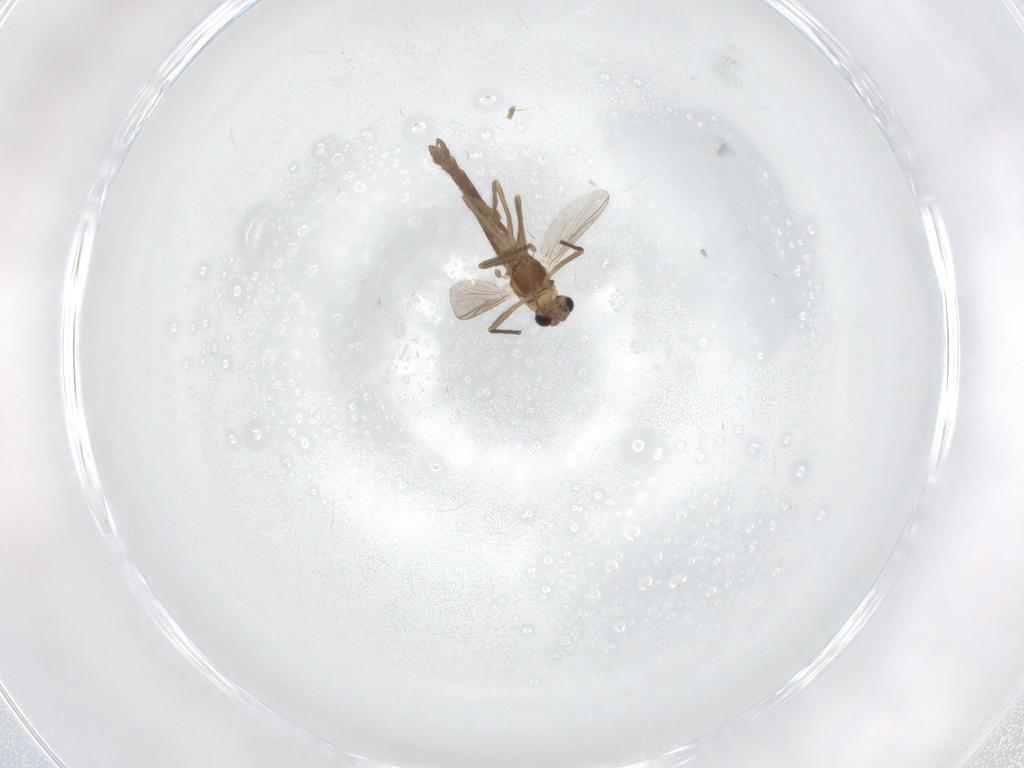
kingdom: Animalia
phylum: Arthropoda
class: Insecta
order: Diptera
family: Chironomidae
